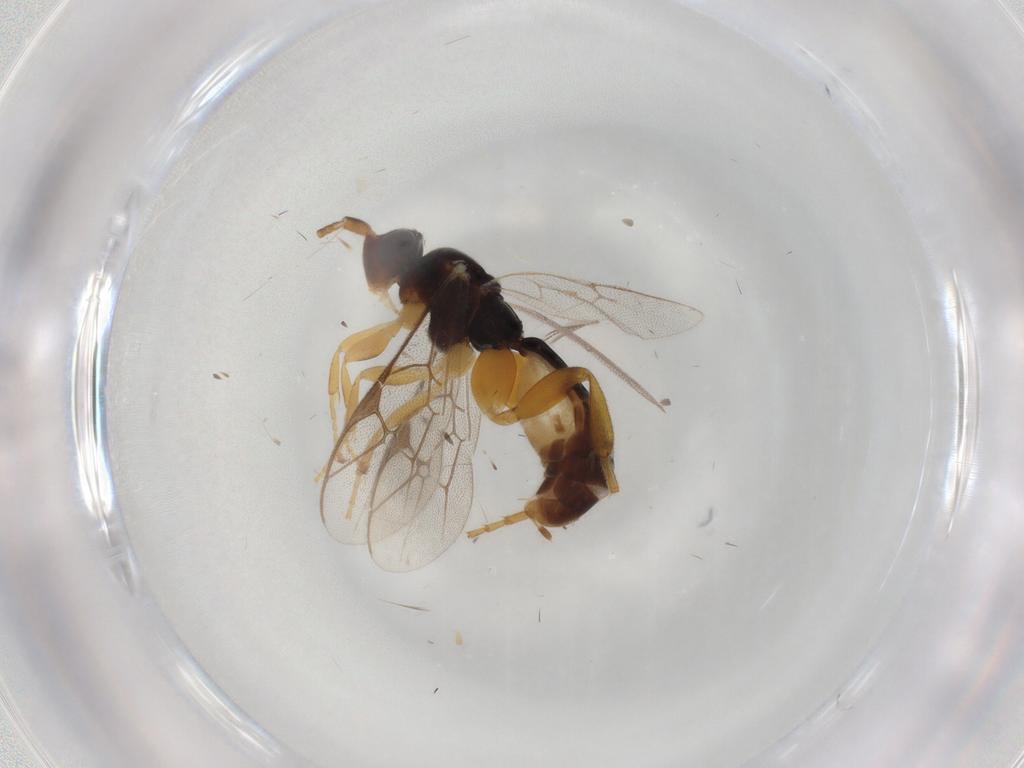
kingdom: Animalia
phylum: Arthropoda
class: Insecta
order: Hymenoptera
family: Ichneumonidae
